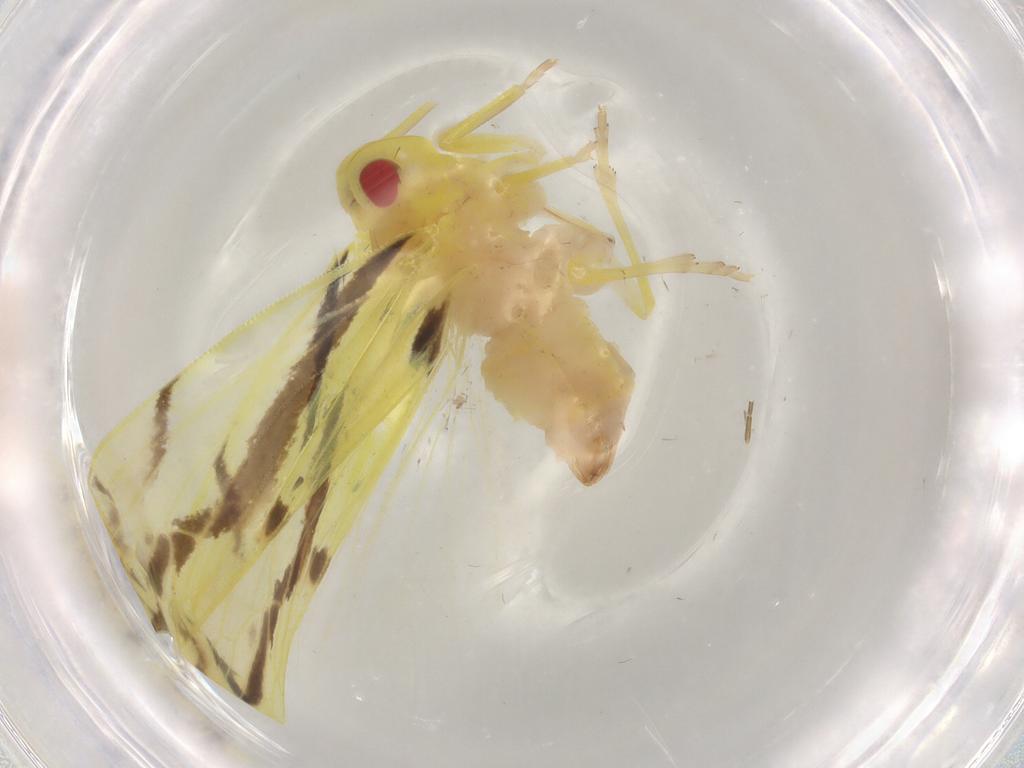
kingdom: Animalia
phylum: Arthropoda
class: Insecta
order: Hemiptera
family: Derbidae
